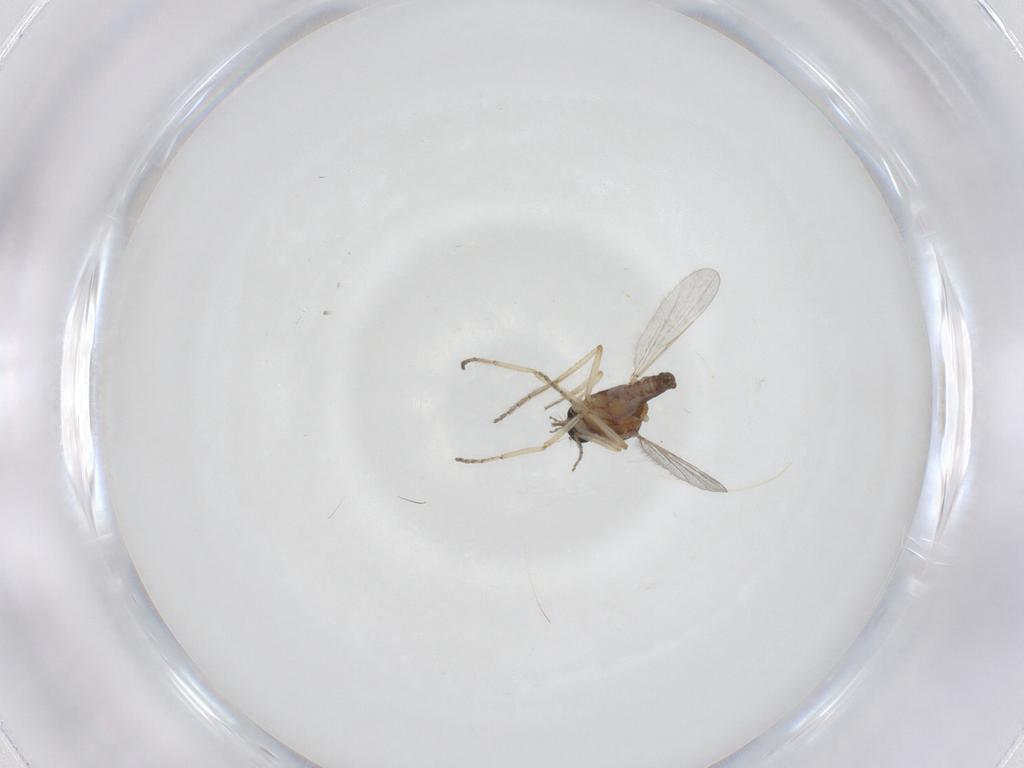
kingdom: Animalia
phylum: Arthropoda
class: Insecta
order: Diptera
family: Ceratopogonidae
